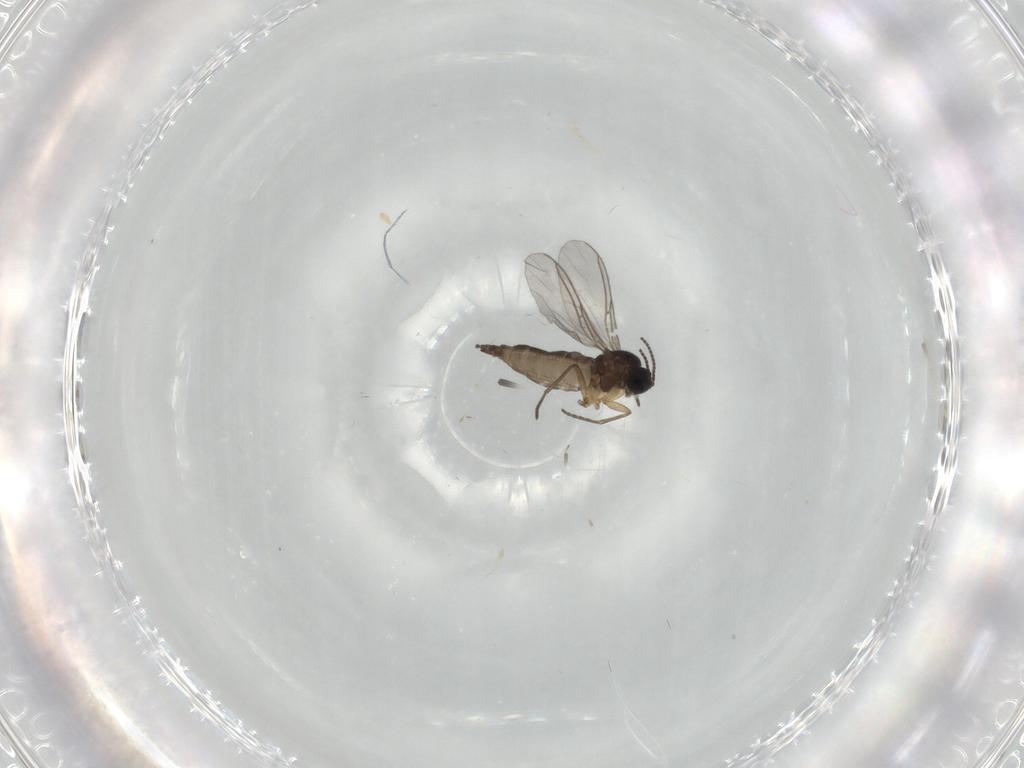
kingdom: Animalia
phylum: Arthropoda
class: Insecta
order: Diptera
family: Sciaridae
